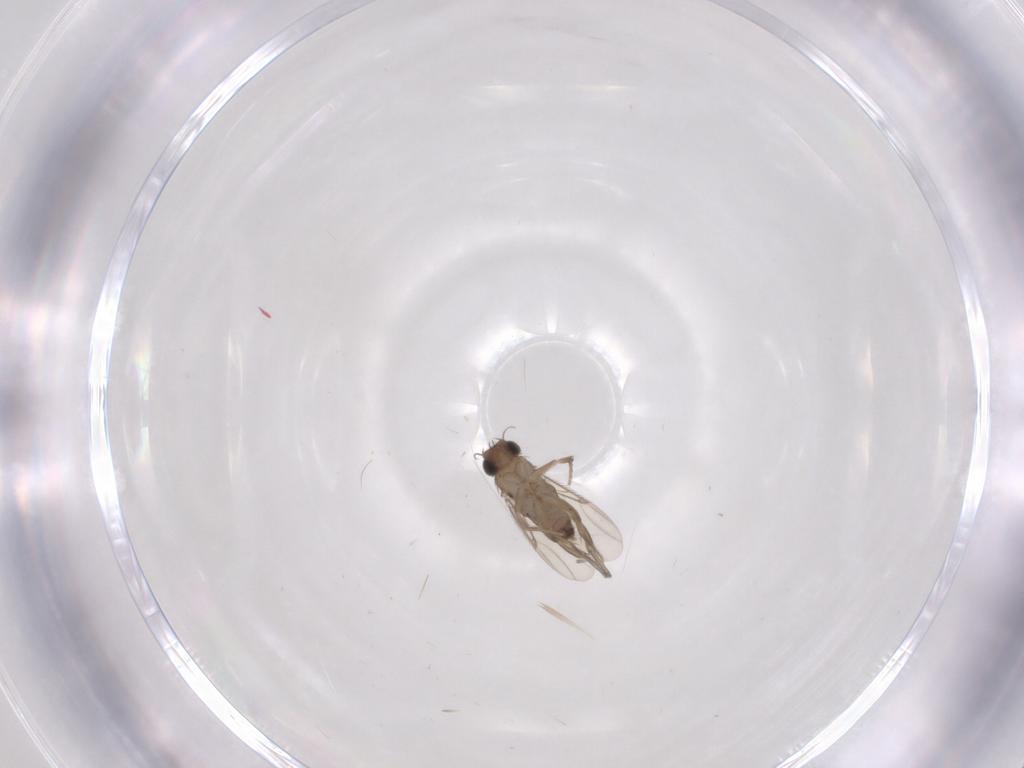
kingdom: Animalia
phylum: Arthropoda
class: Insecta
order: Diptera
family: Phoridae
